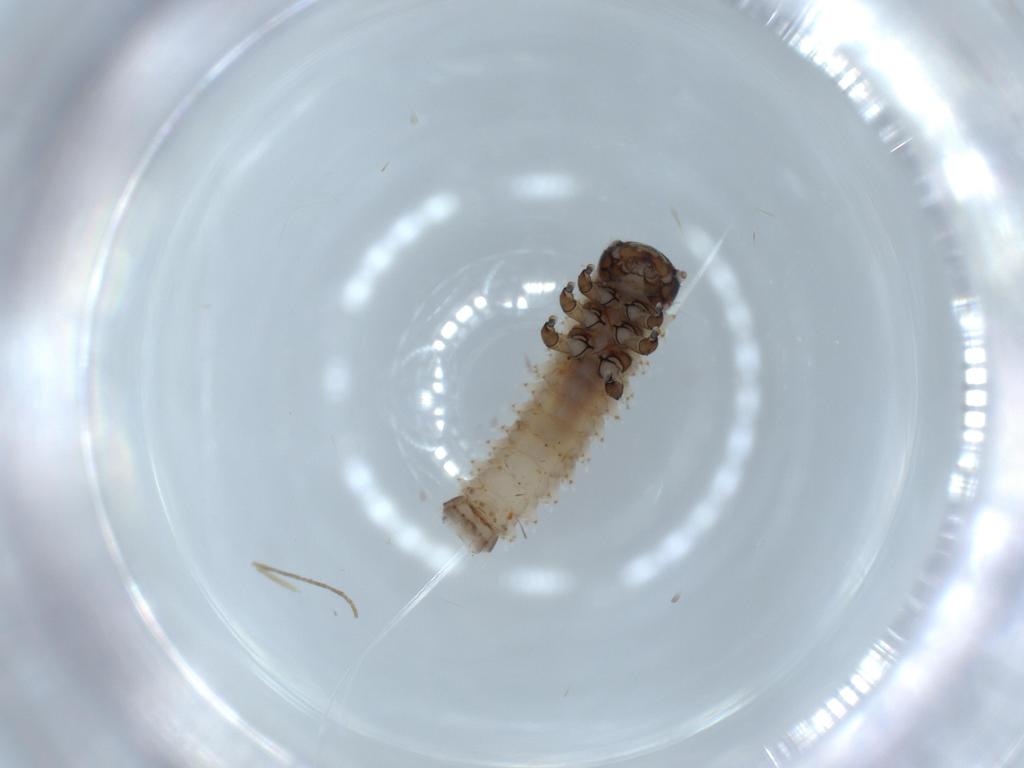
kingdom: Animalia
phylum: Arthropoda
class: Insecta
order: Coleoptera
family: Chrysomelidae
